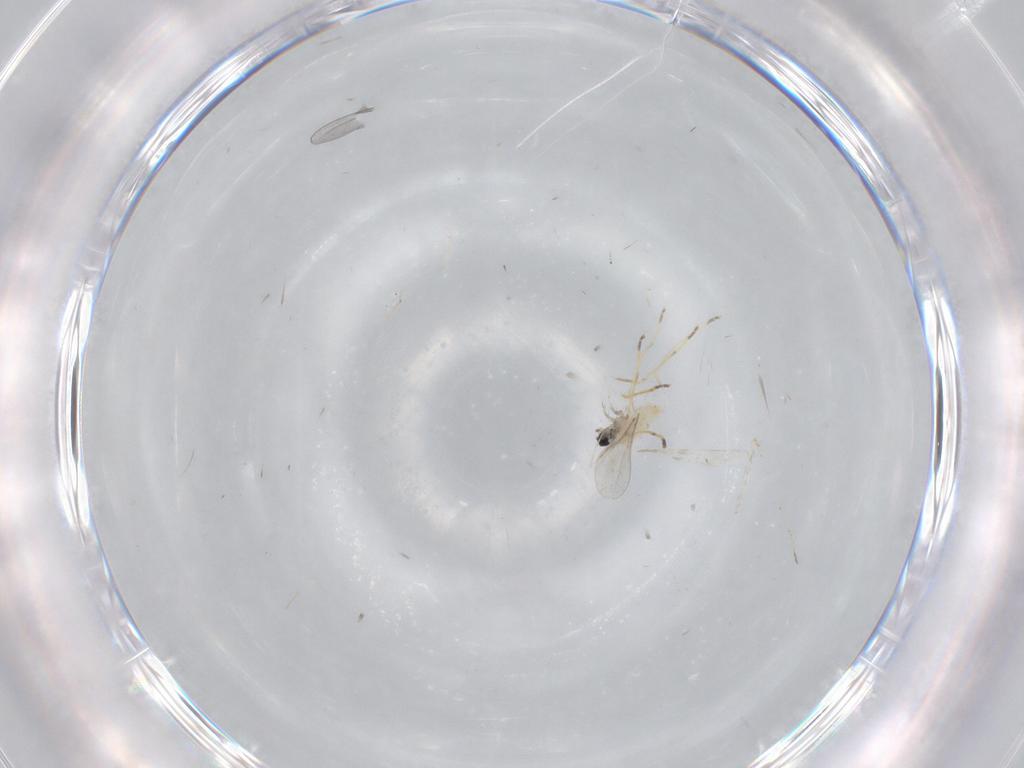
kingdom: Animalia
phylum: Arthropoda
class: Insecta
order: Diptera
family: Cecidomyiidae
